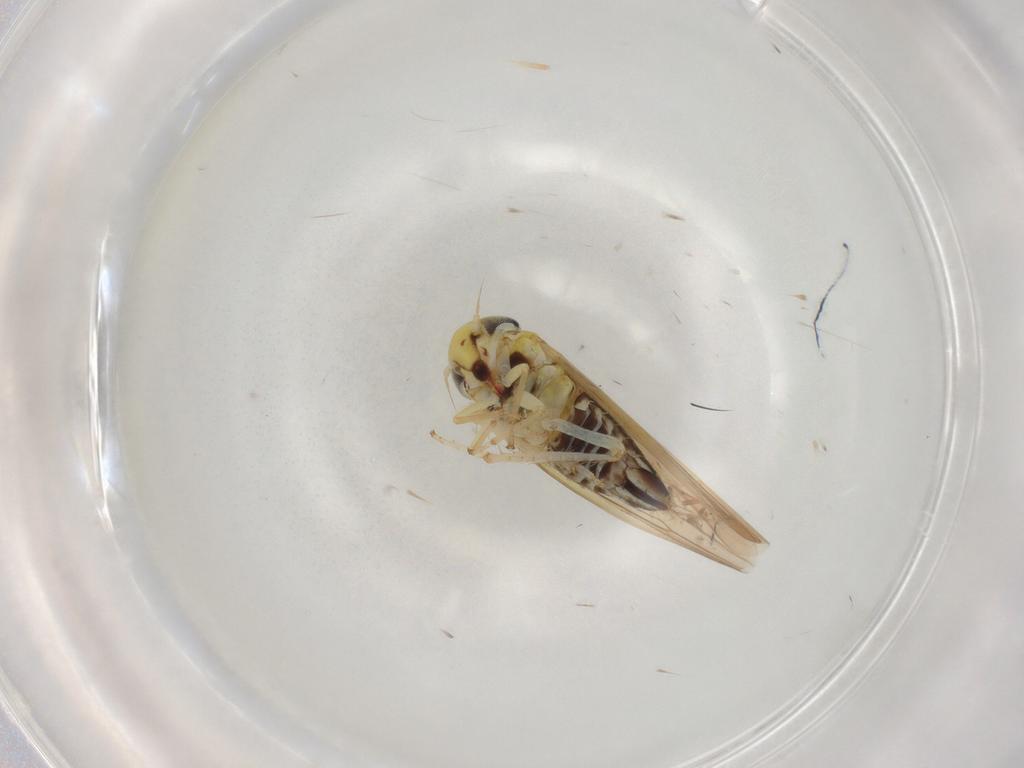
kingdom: Animalia
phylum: Arthropoda
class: Insecta
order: Hemiptera
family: Cicadellidae
